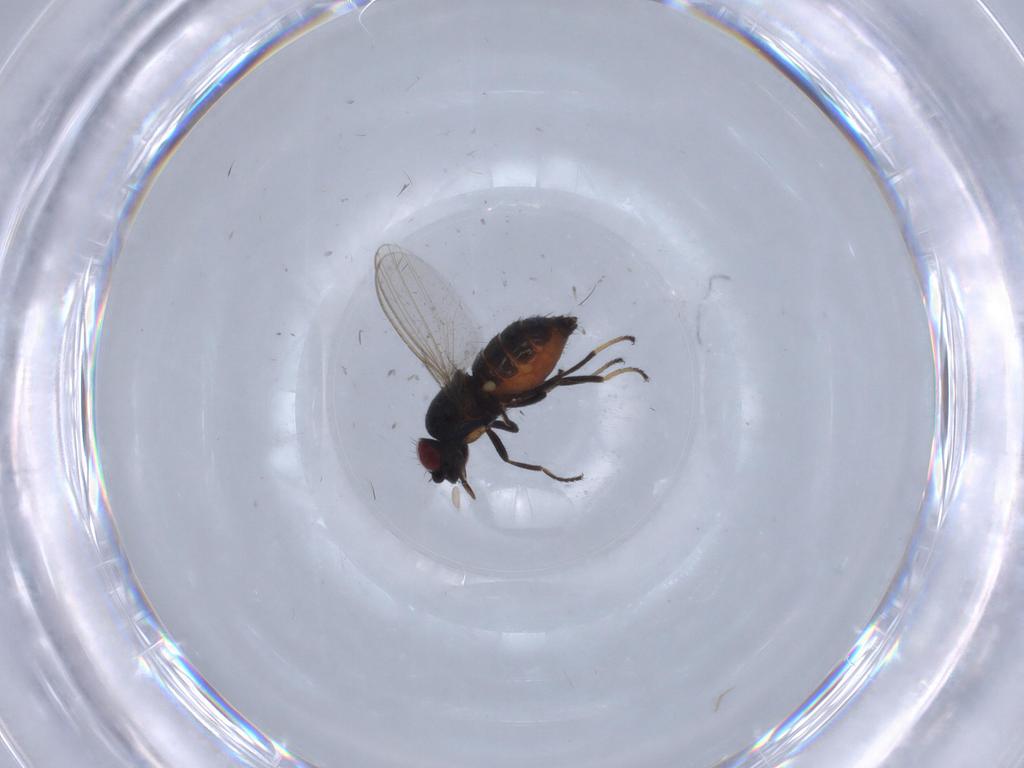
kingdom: Animalia
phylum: Arthropoda
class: Insecta
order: Diptera
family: Milichiidae
